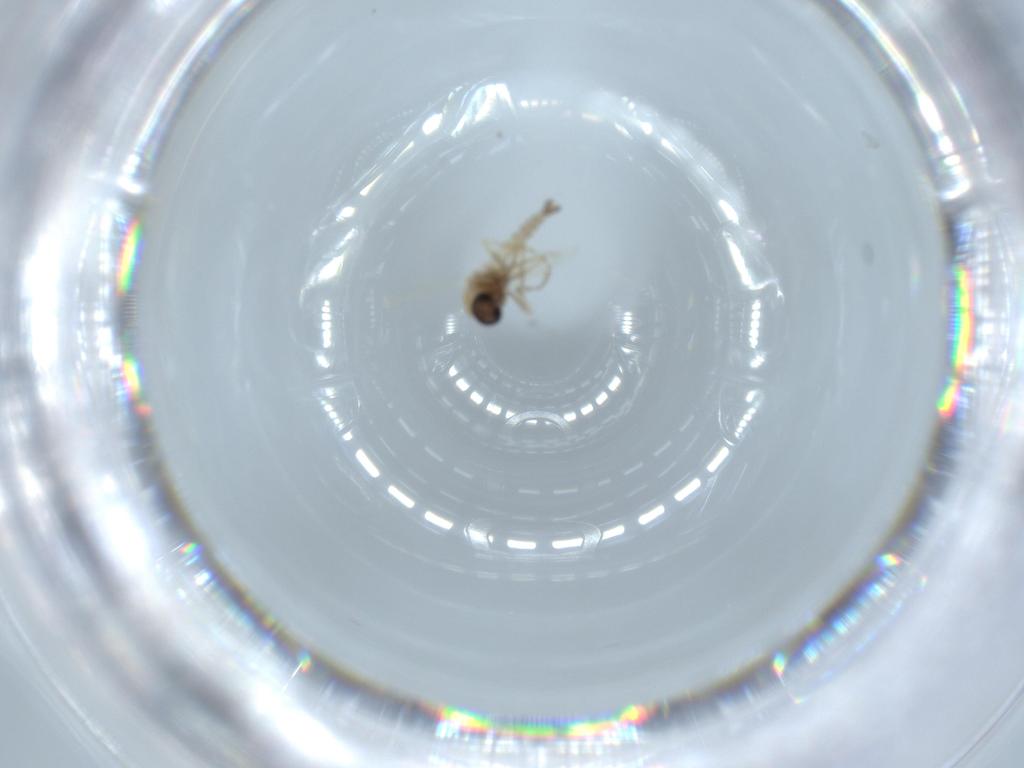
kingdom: Animalia
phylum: Arthropoda
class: Insecta
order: Diptera
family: Ceratopogonidae
